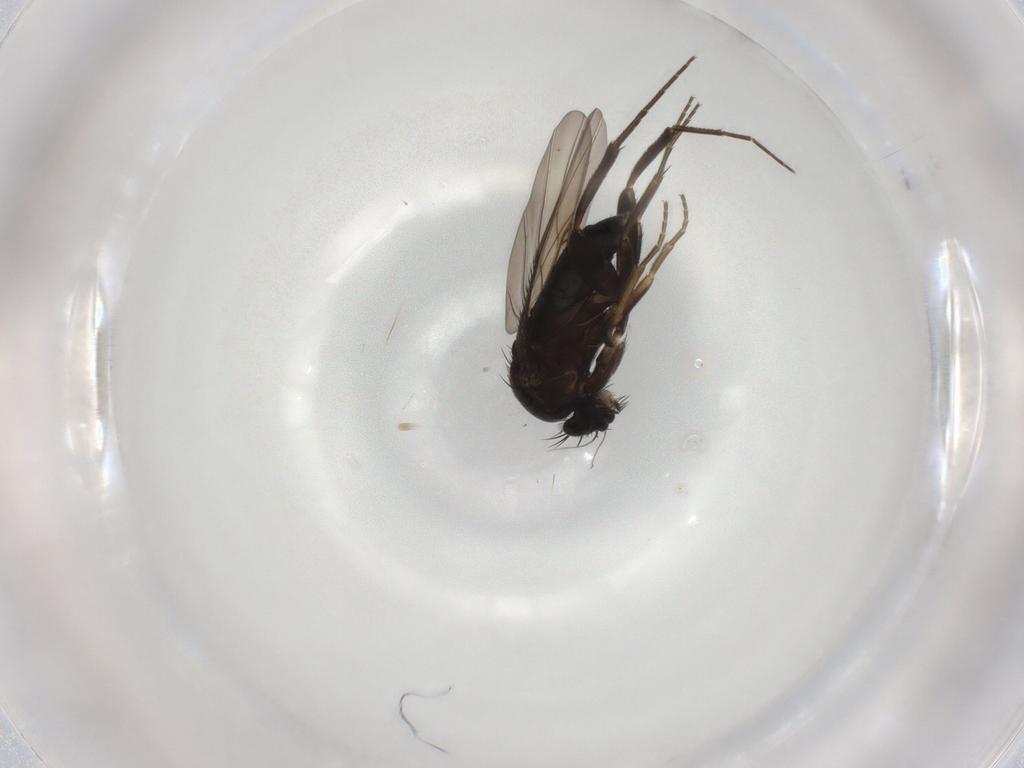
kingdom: Animalia
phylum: Arthropoda
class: Insecta
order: Diptera
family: Phoridae
